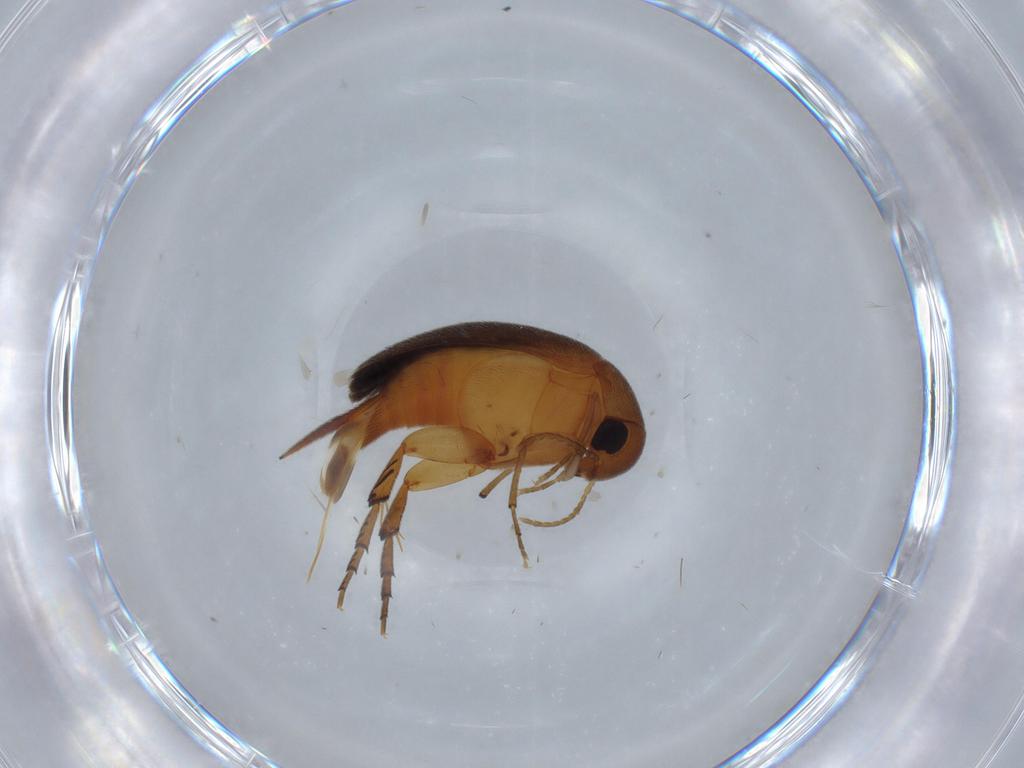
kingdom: Animalia
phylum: Arthropoda
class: Insecta
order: Coleoptera
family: Mordellidae
